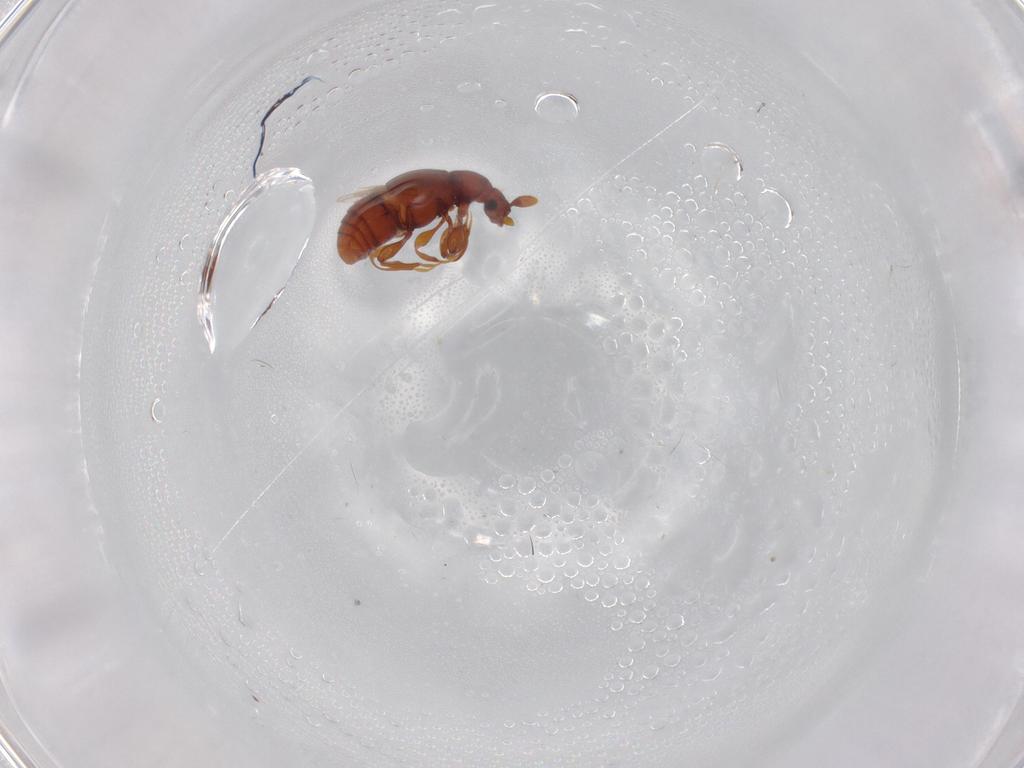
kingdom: Animalia
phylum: Arthropoda
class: Insecta
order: Coleoptera
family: Staphylinidae
